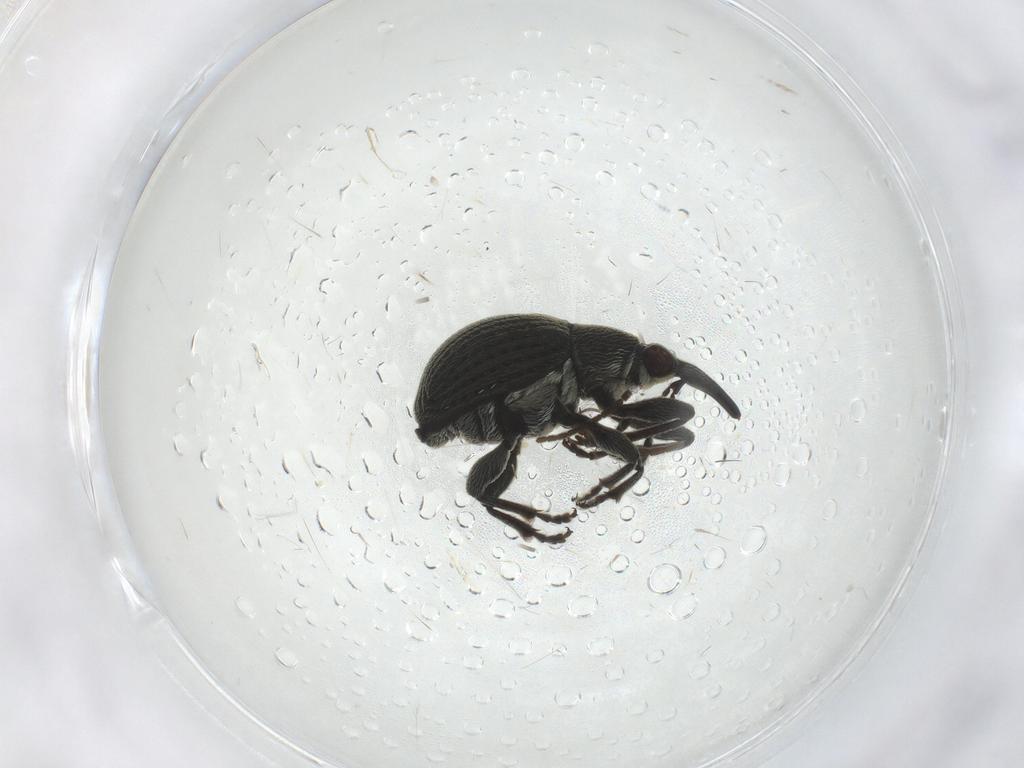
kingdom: Animalia
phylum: Arthropoda
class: Insecta
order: Coleoptera
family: Brentidae
